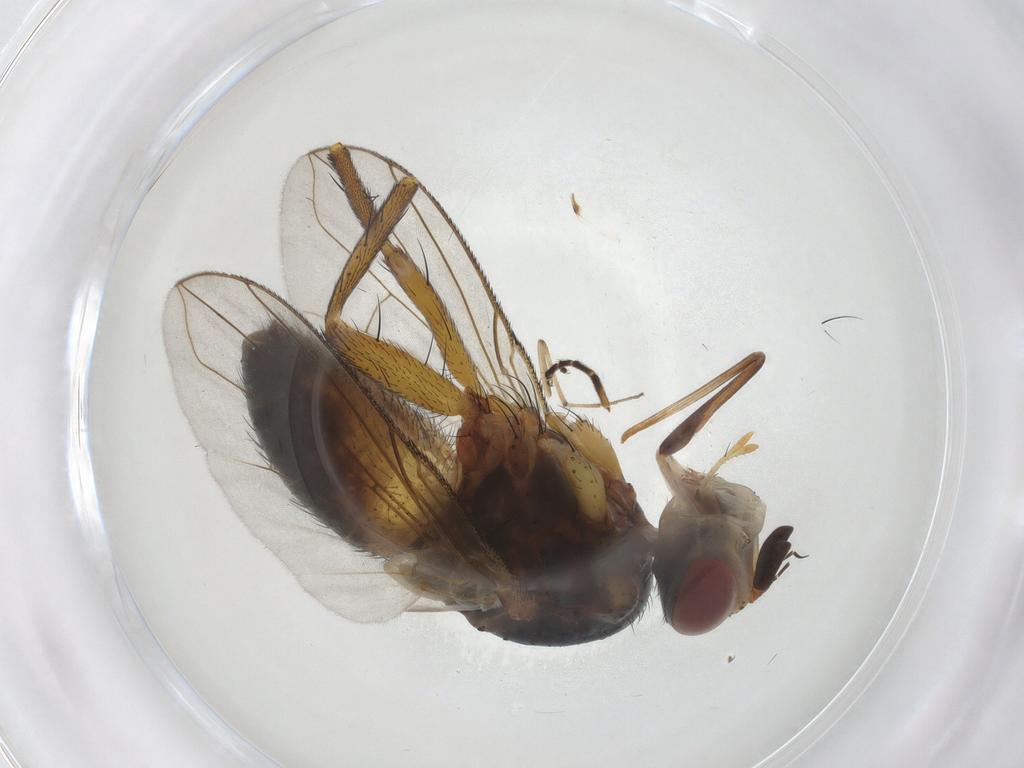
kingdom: Animalia
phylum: Arthropoda
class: Insecta
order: Diptera
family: Tachinidae
